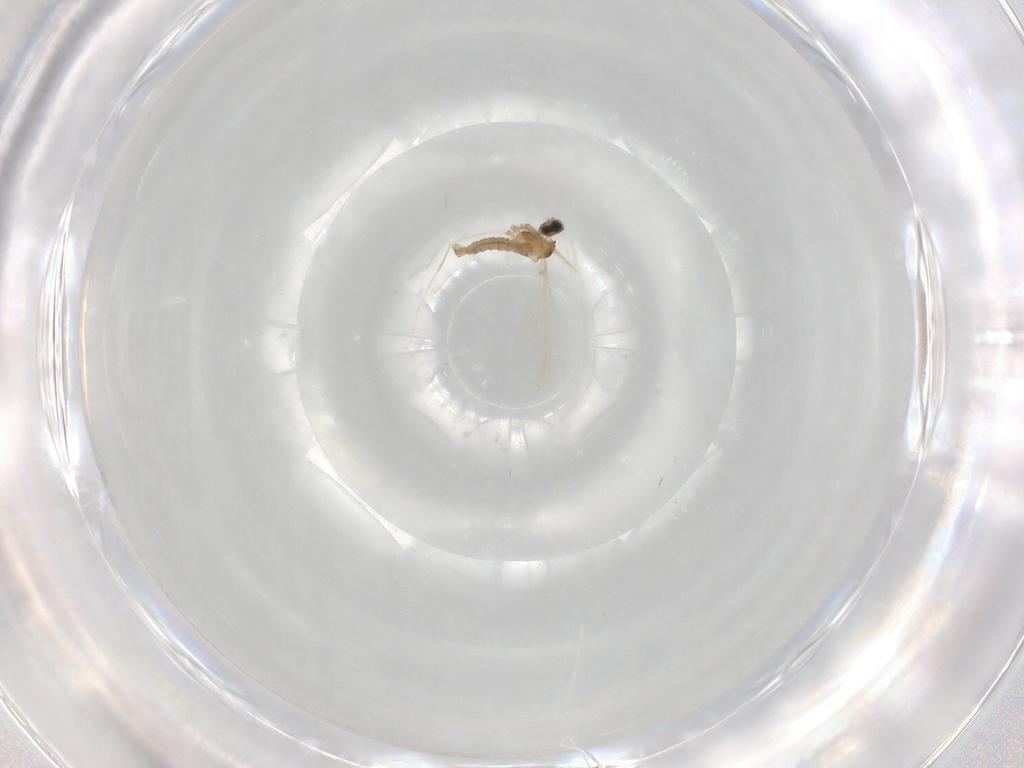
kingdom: Animalia
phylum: Arthropoda
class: Insecta
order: Diptera
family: Cecidomyiidae
